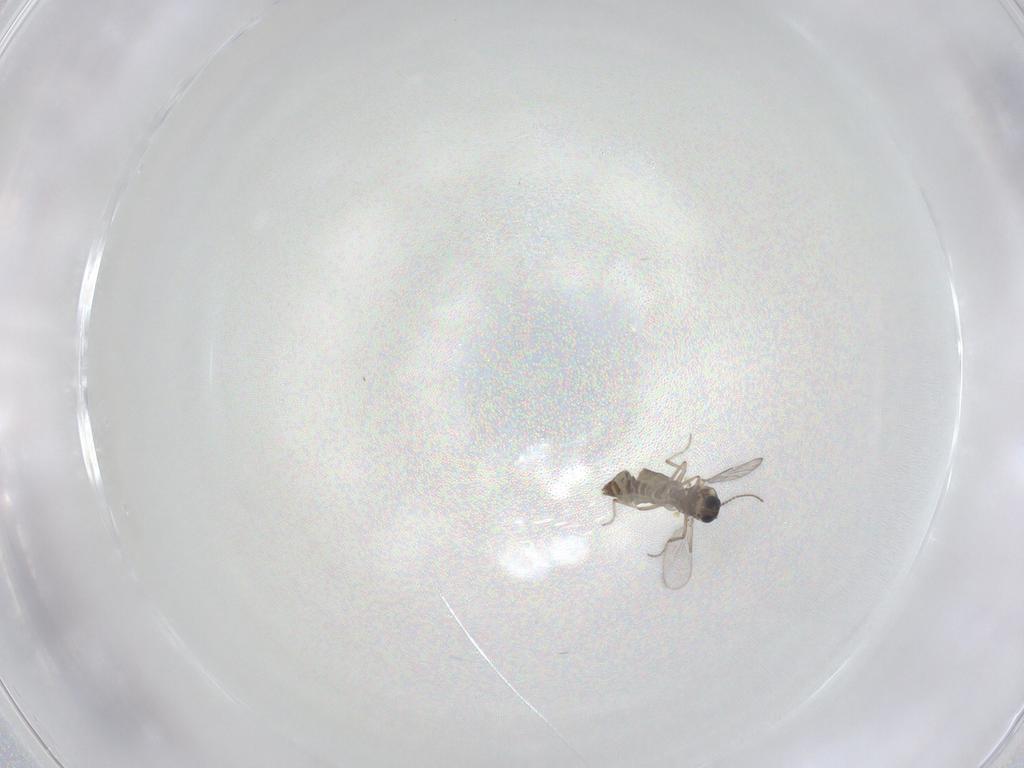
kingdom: Animalia
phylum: Arthropoda
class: Insecta
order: Diptera
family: Ceratopogonidae
